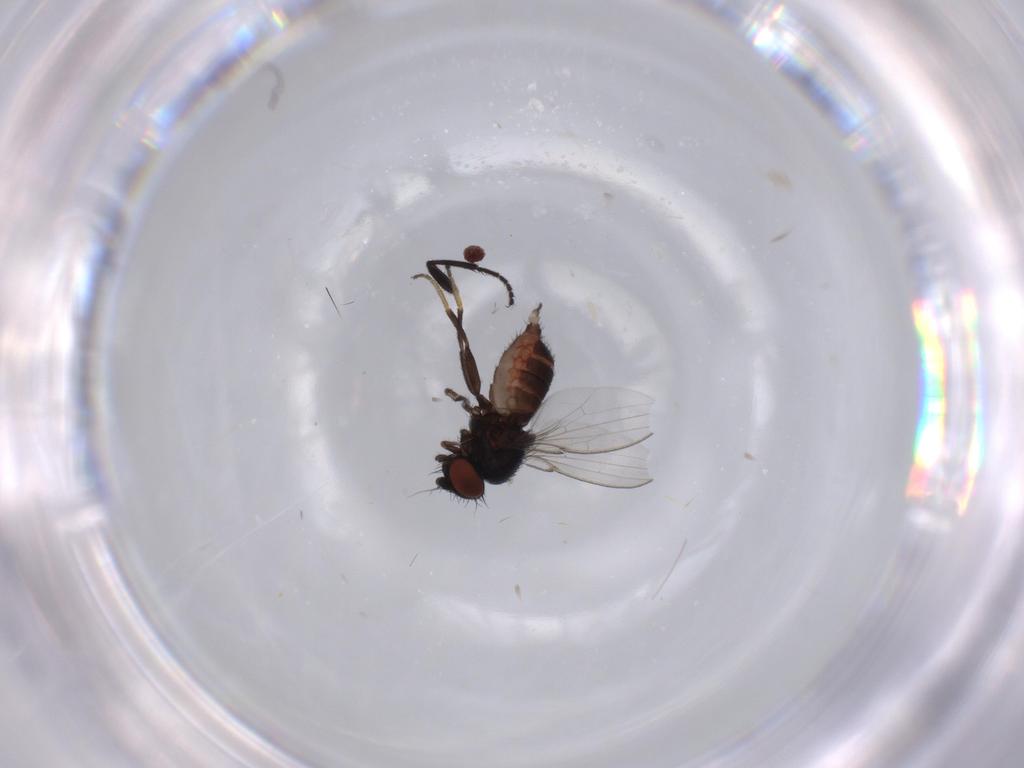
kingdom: Animalia
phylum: Arthropoda
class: Insecta
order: Diptera
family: Milichiidae
